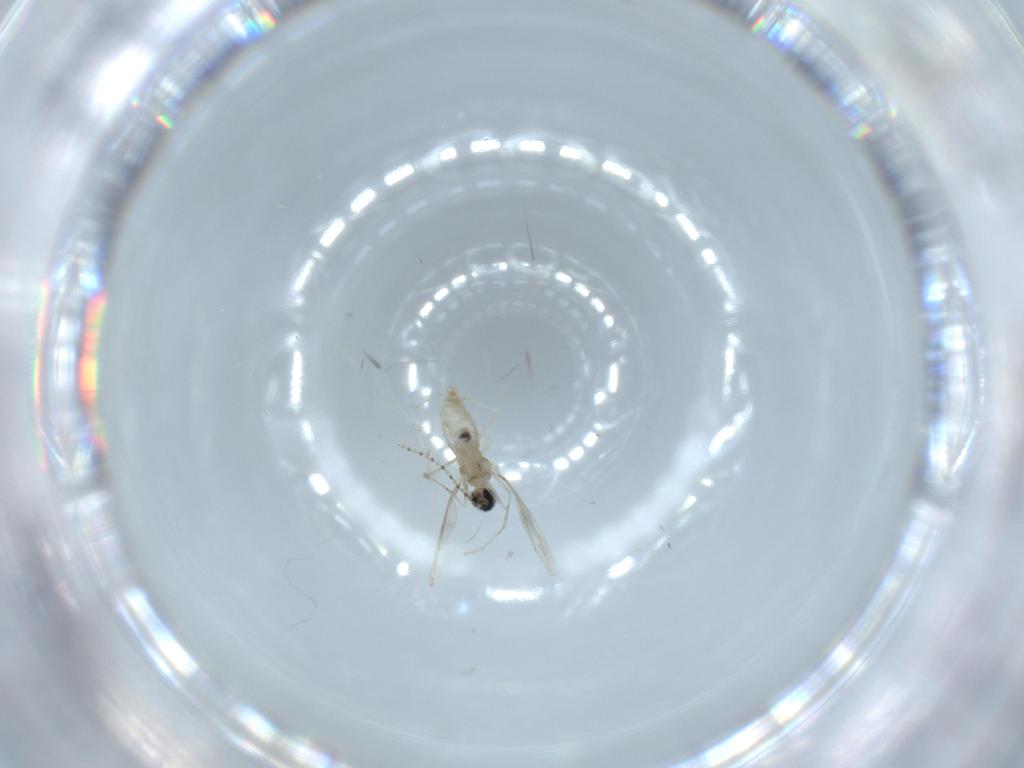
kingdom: Animalia
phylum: Arthropoda
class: Insecta
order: Diptera
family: Cecidomyiidae
